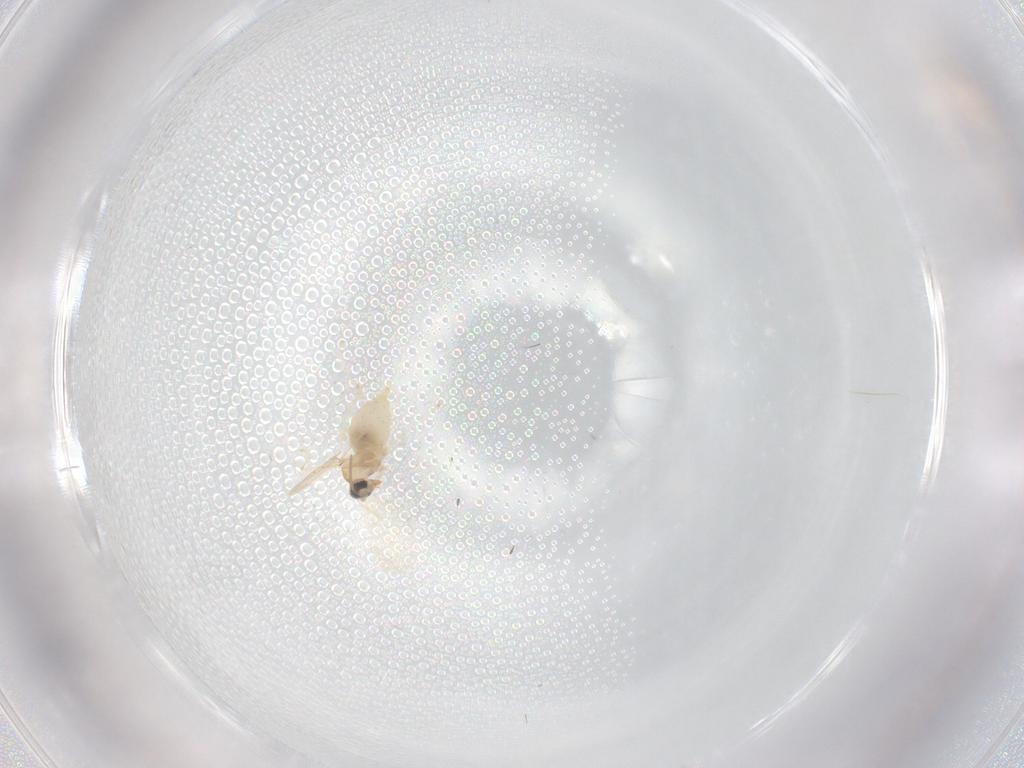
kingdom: Animalia
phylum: Arthropoda
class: Insecta
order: Diptera
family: Cecidomyiidae
